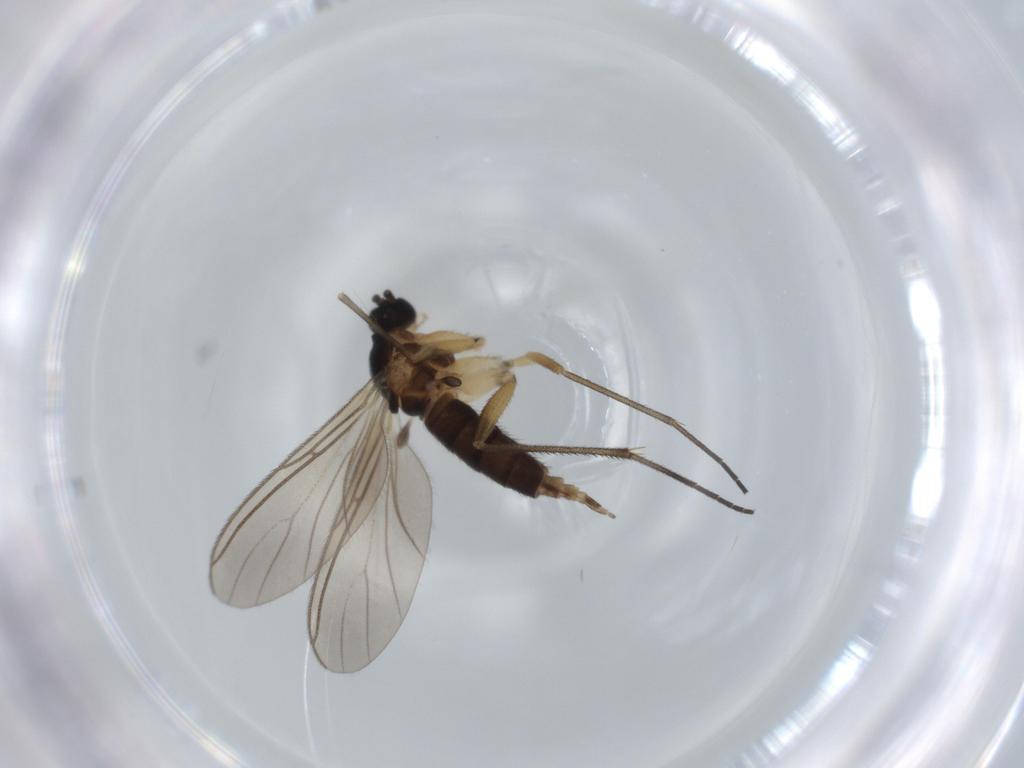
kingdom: Animalia
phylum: Arthropoda
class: Insecta
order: Diptera
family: Sciaridae
